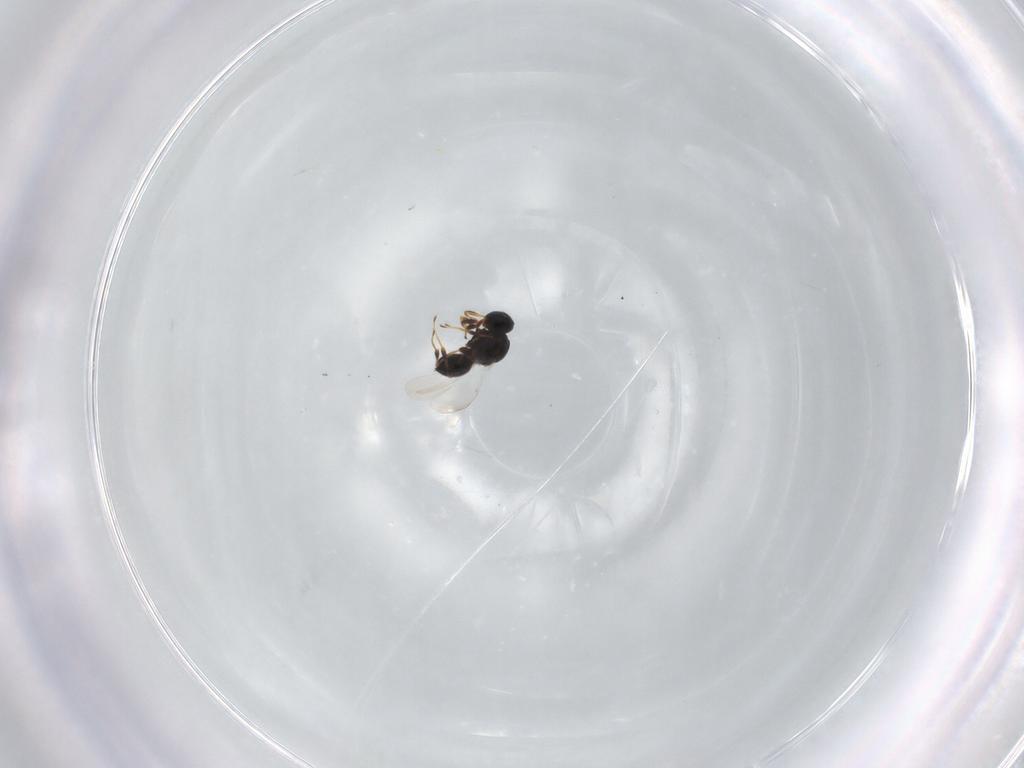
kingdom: Animalia
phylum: Arthropoda
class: Insecta
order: Hymenoptera
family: Platygastridae
